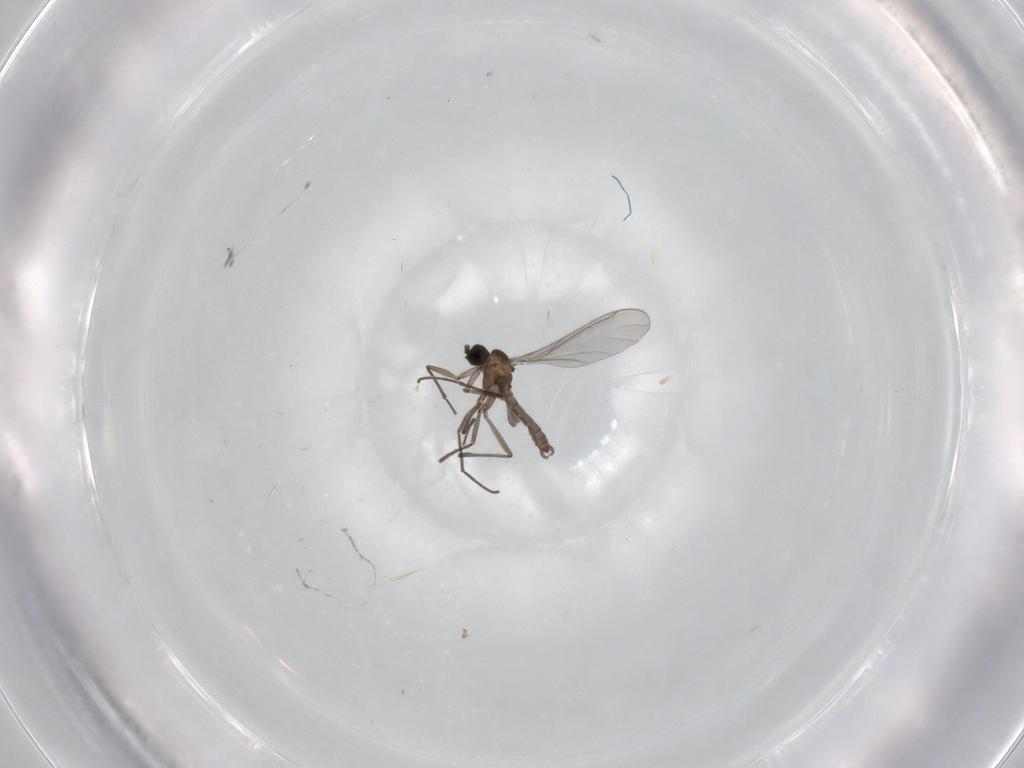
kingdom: Animalia
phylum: Arthropoda
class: Insecta
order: Diptera
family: Sciaridae
